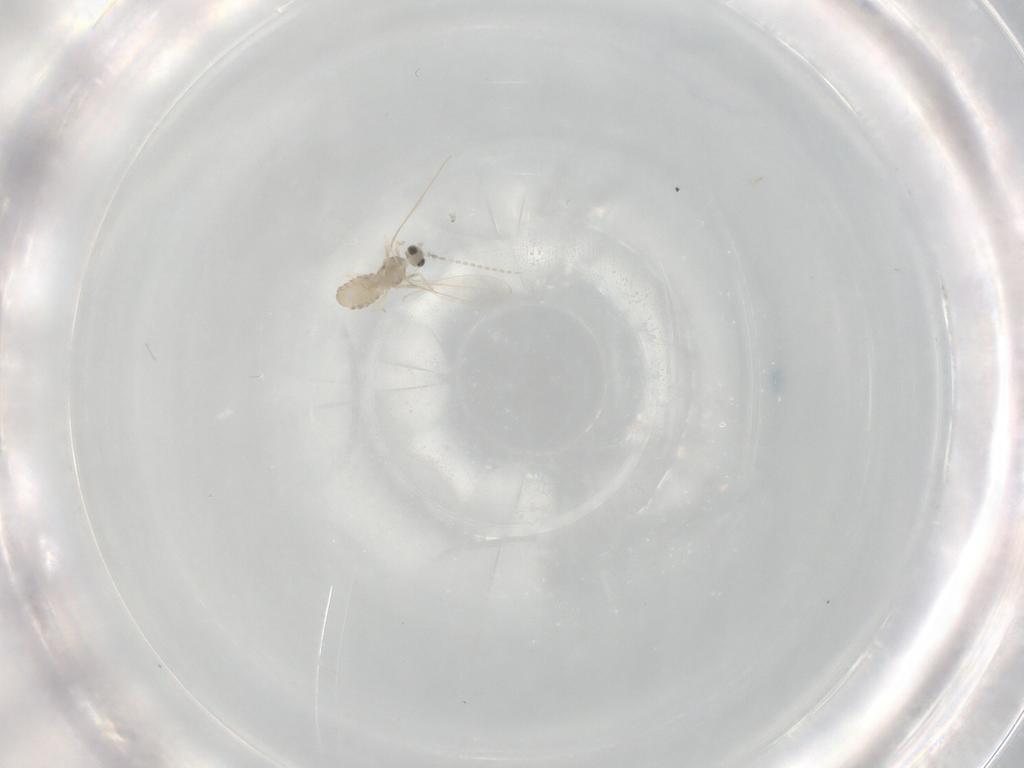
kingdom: Animalia
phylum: Arthropoda
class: Insecta
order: Diptera
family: Cecidomyiidae
